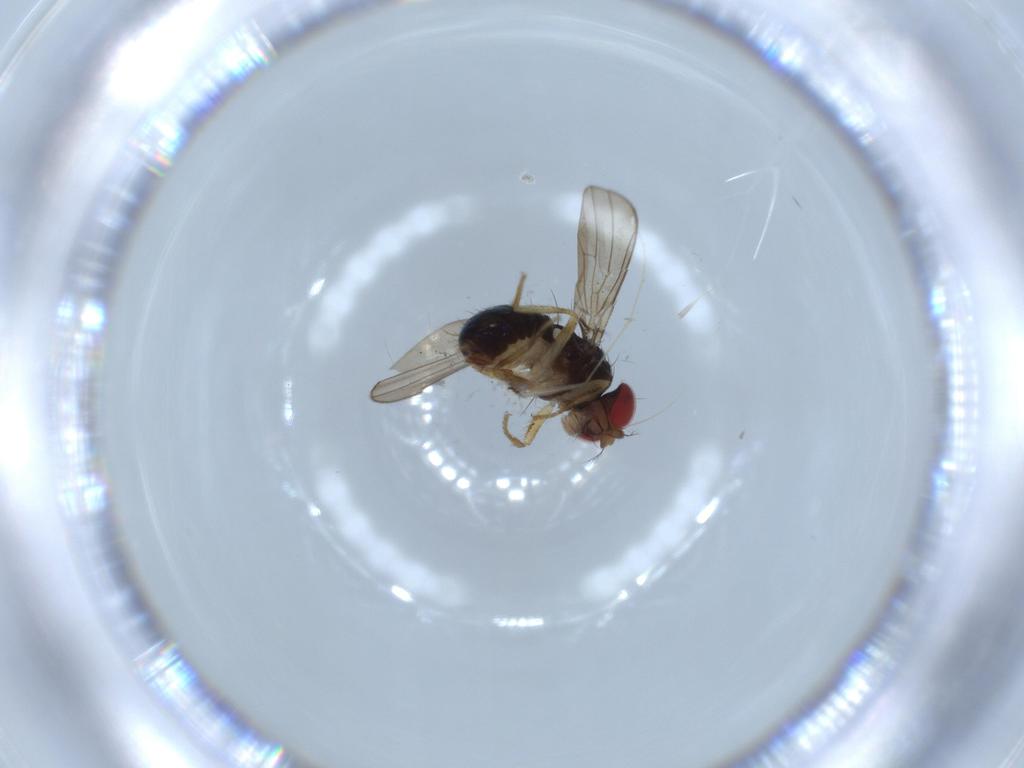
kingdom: Animalia
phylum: Arthropoda
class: Insecta
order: Diptera
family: Drosophilidae
